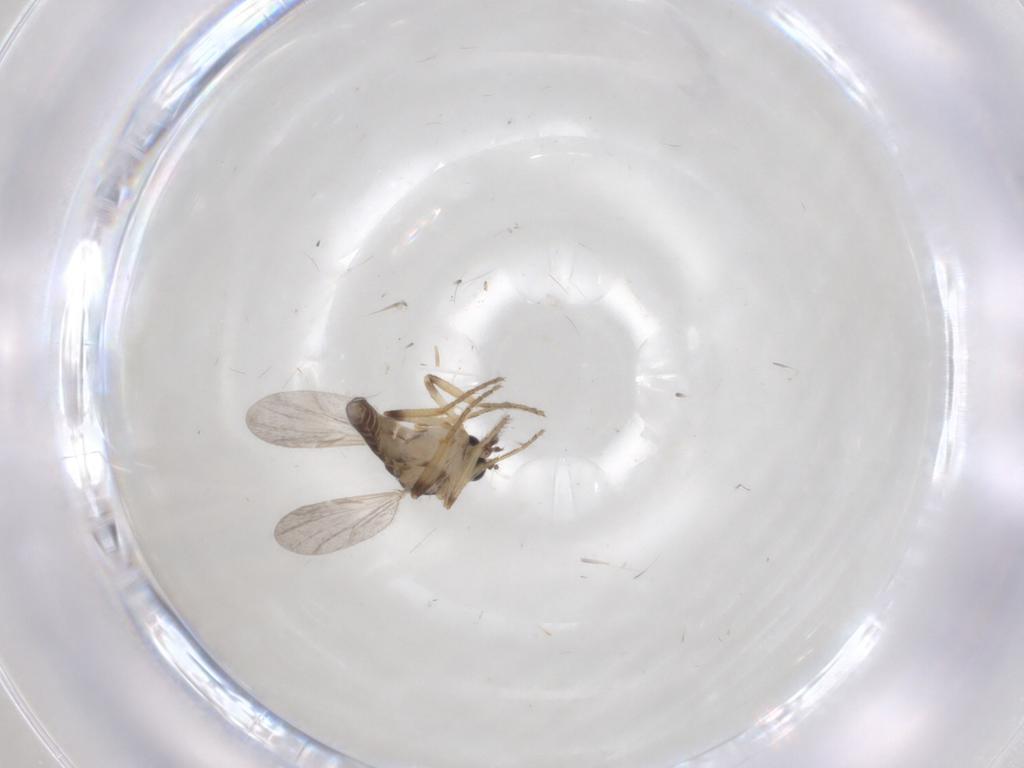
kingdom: Animalia
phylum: Arthropoda
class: Insecta
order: Diptera
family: Ceratopogonidae
